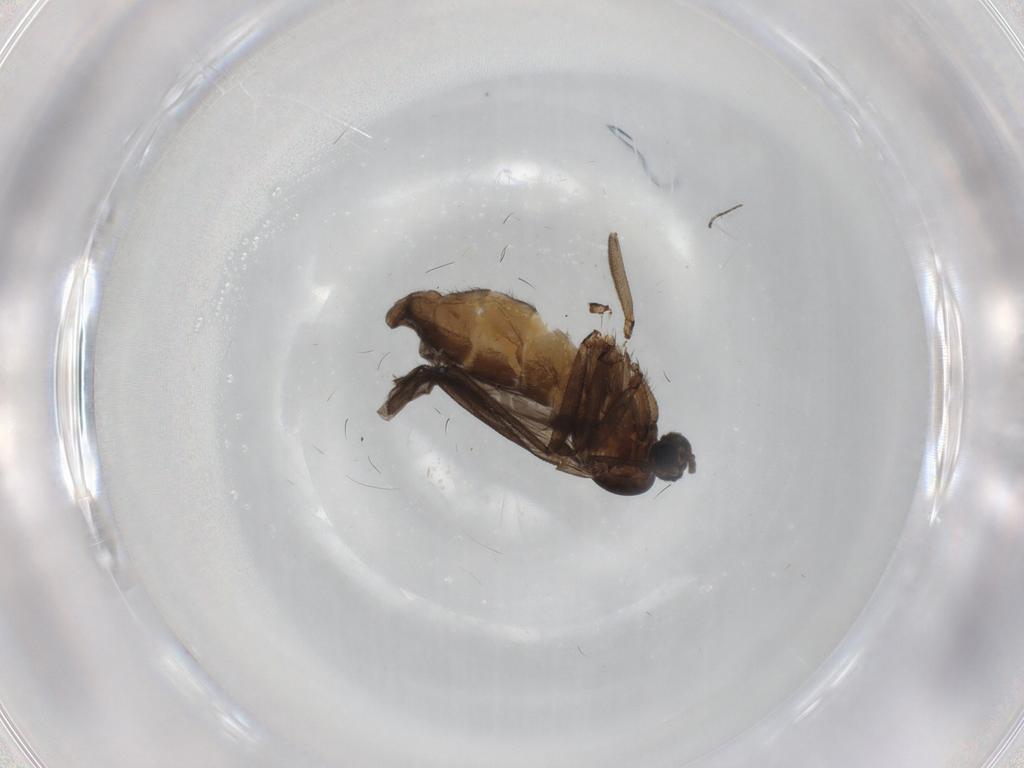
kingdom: Animalia
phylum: Arthropoda
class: Insecta
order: Diptera
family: Sciaridae
